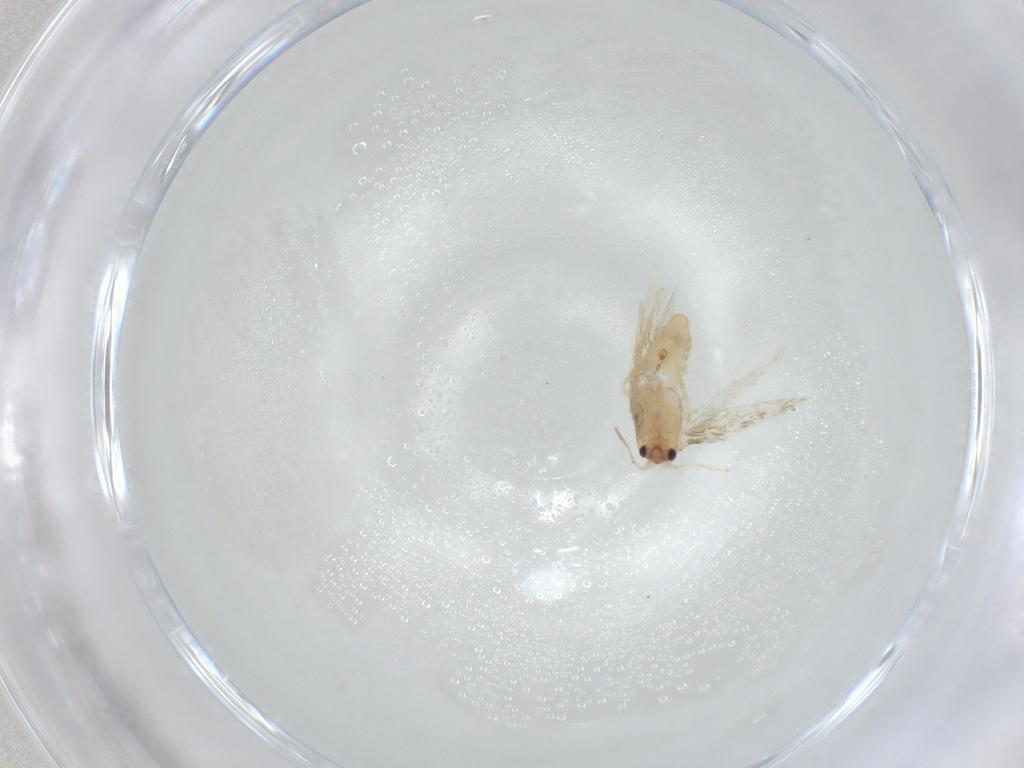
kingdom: Animalia
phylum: Arthropoda
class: Insecta
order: Lepidoptera
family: Nepticulidae
